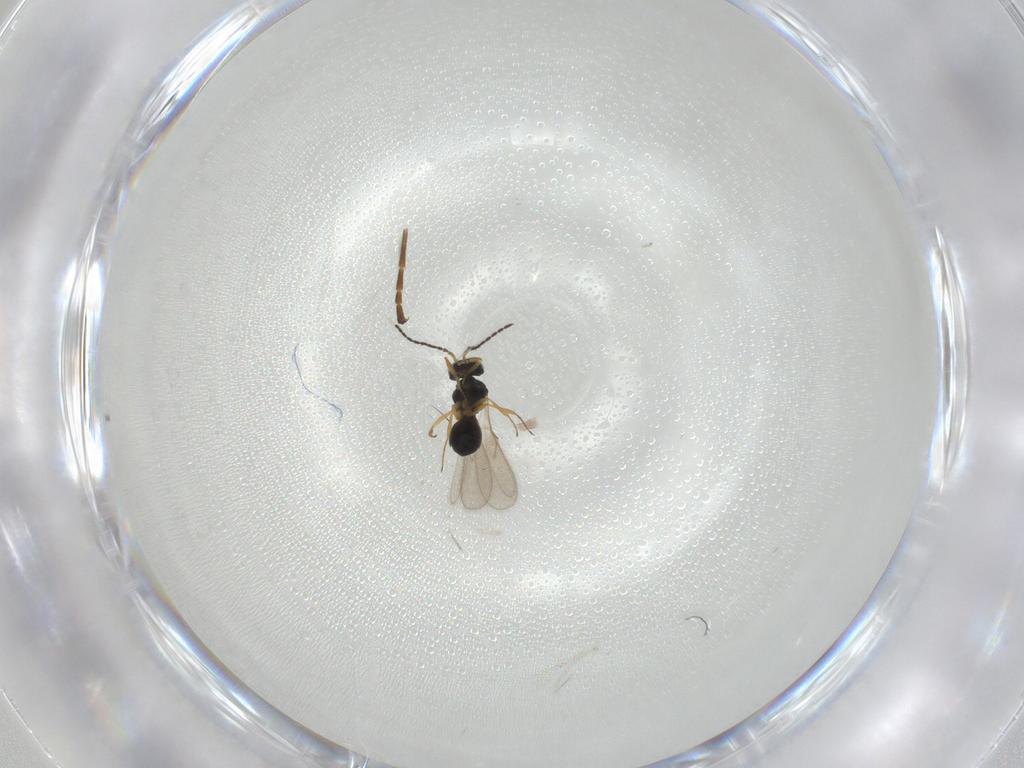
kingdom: Animalia
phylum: Arthropoda
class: Insecta
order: Hymenoptera
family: Scelionidae
